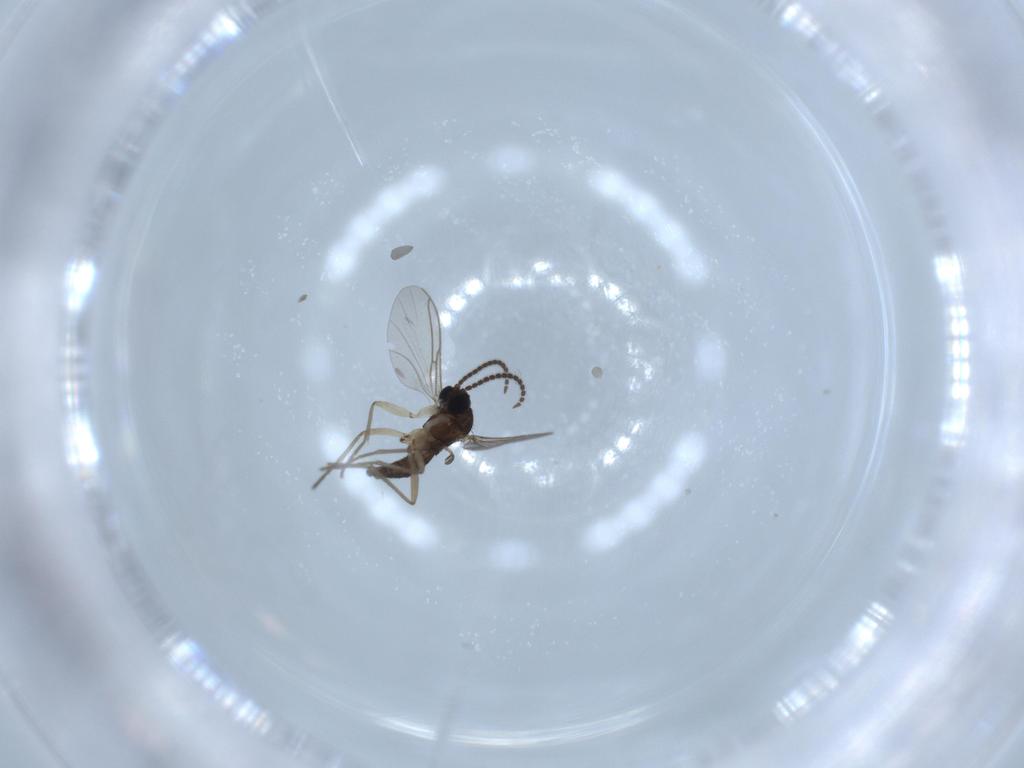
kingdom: Animalia
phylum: Arthropoda
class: Insecta
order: Diptera
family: Sciaridae
